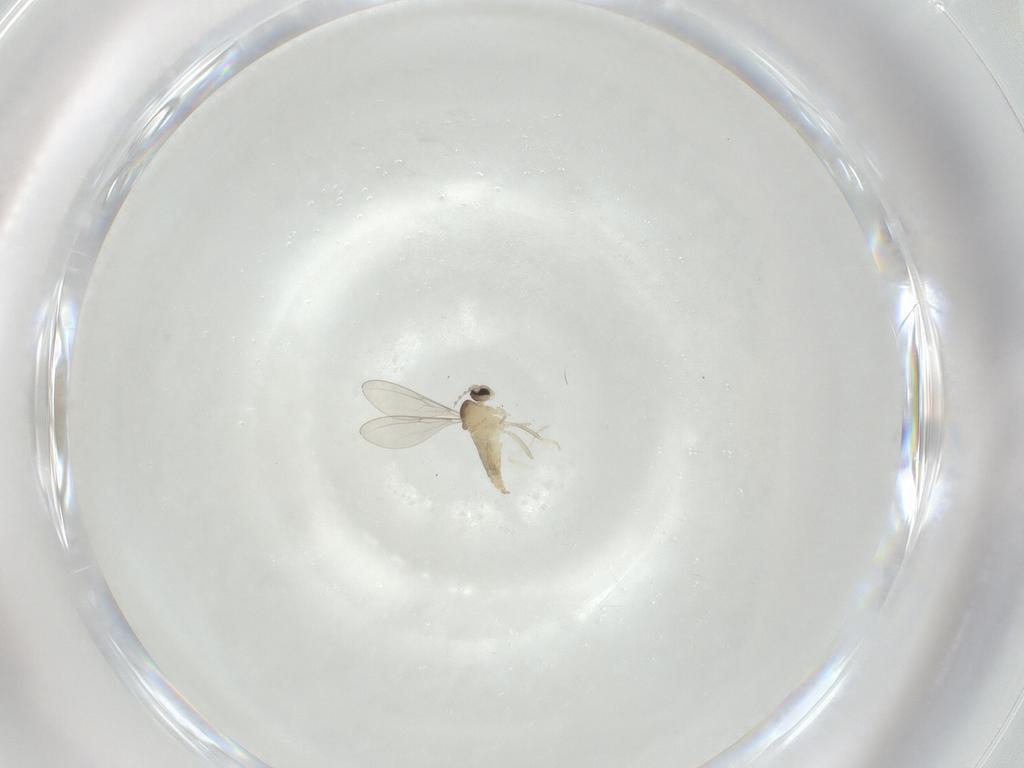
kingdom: Animalia
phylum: Arthropoda
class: Insecta
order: Diptera
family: Cecidomyiidae
